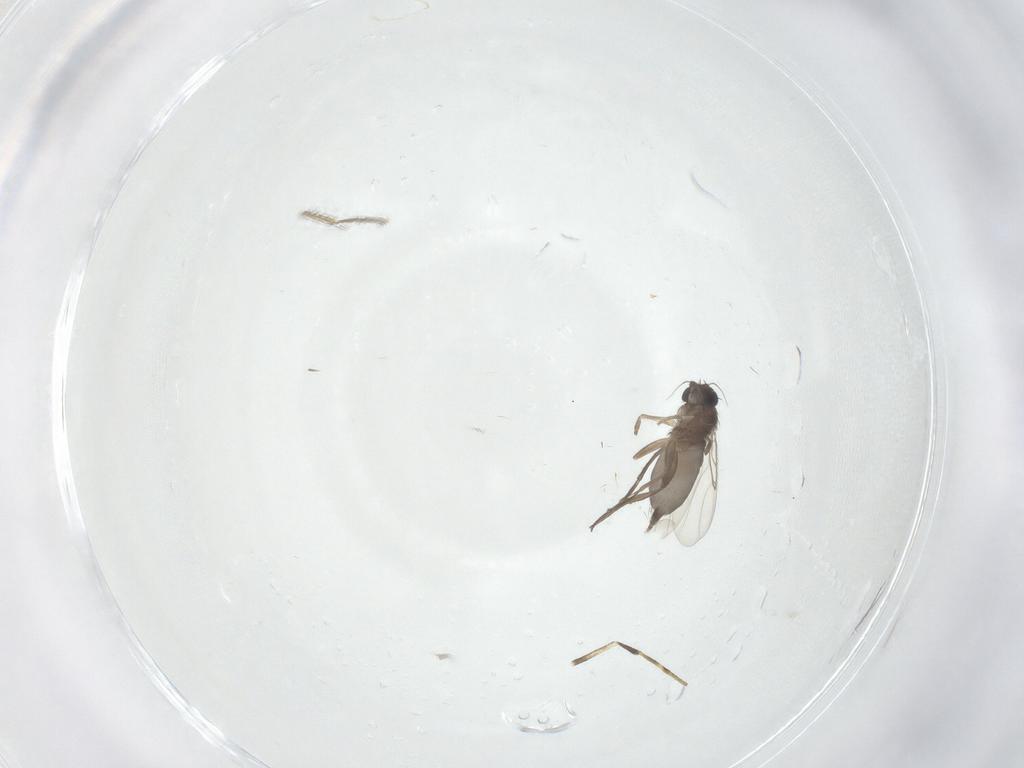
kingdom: Animalia
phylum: Arthropoda
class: Insecta
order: Diptera
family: Phoridae
